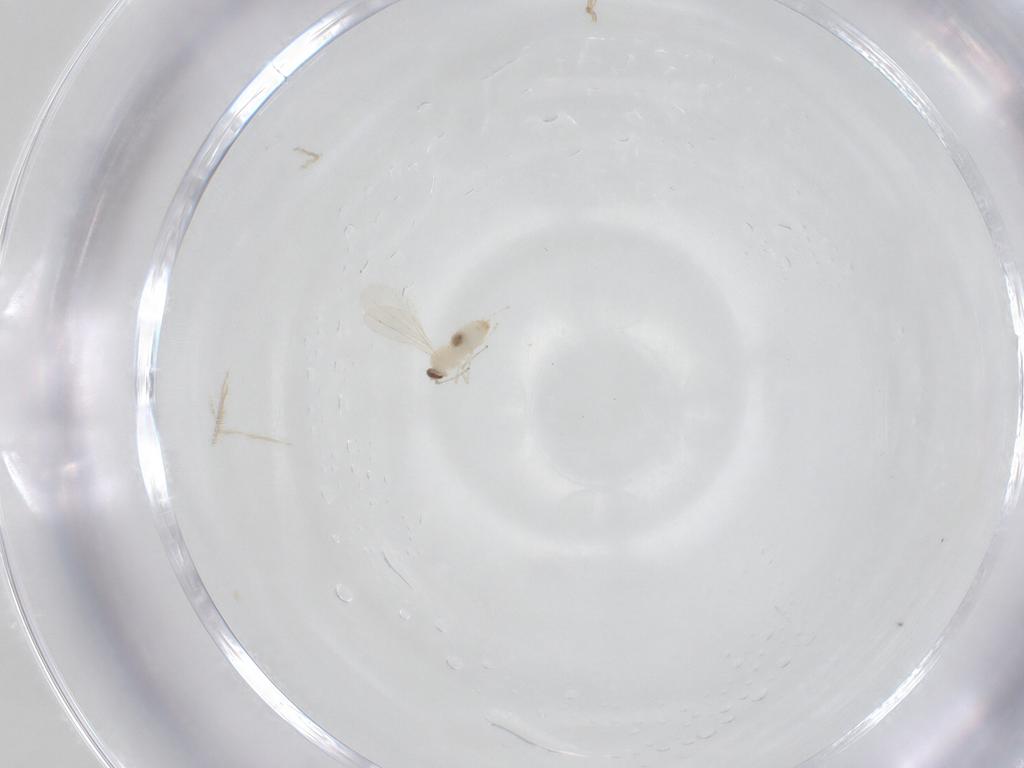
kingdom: Animalia
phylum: Arthropoda
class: Insecta
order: Diptera
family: Cecidomyiidae
